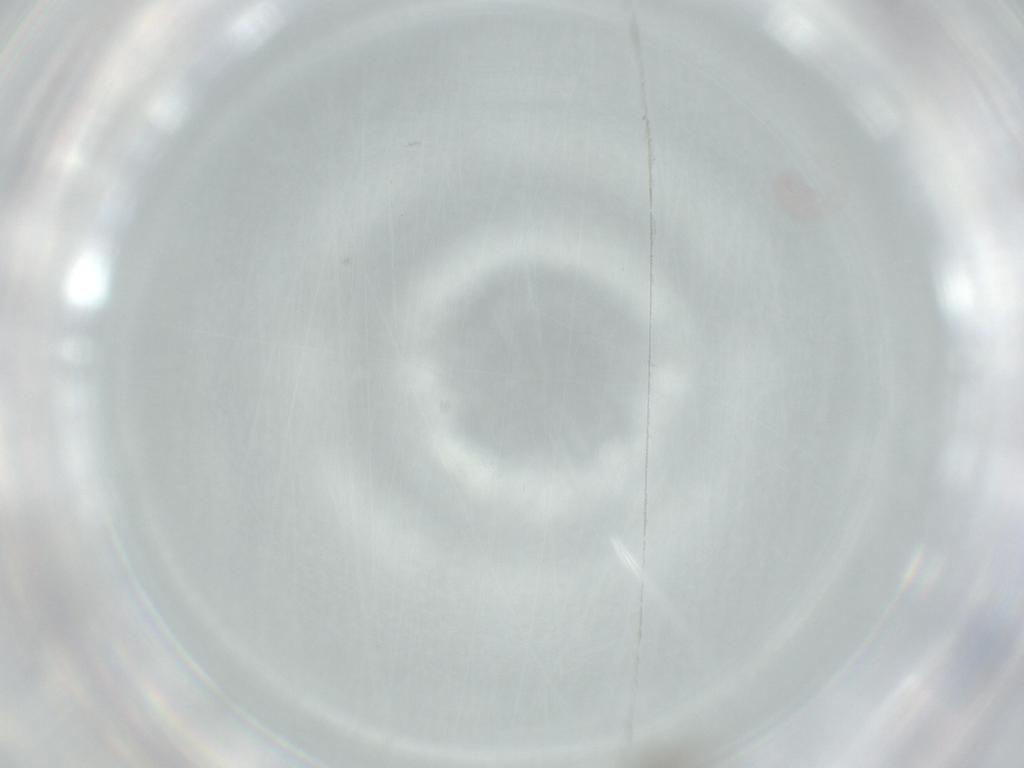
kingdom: Animalia
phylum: Arthropoda
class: Insecta
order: Diptera
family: Cecidomyiidae
